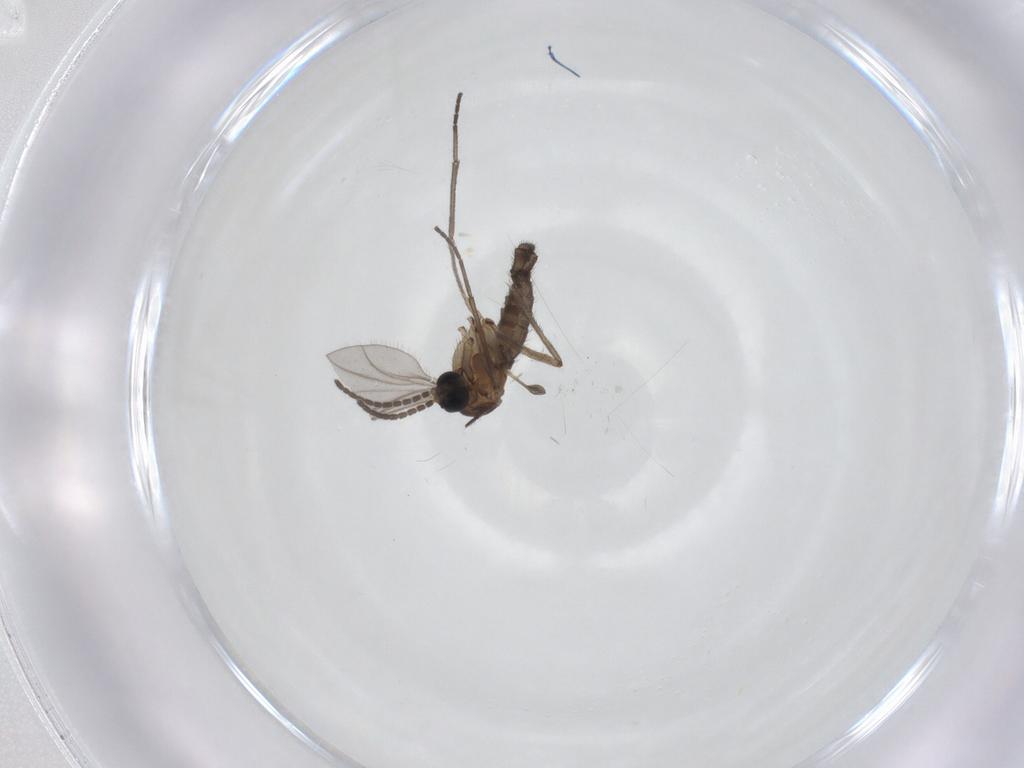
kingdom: Animalia
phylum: Arthropoda
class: Insecta
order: Diptera
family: Sciaridae
